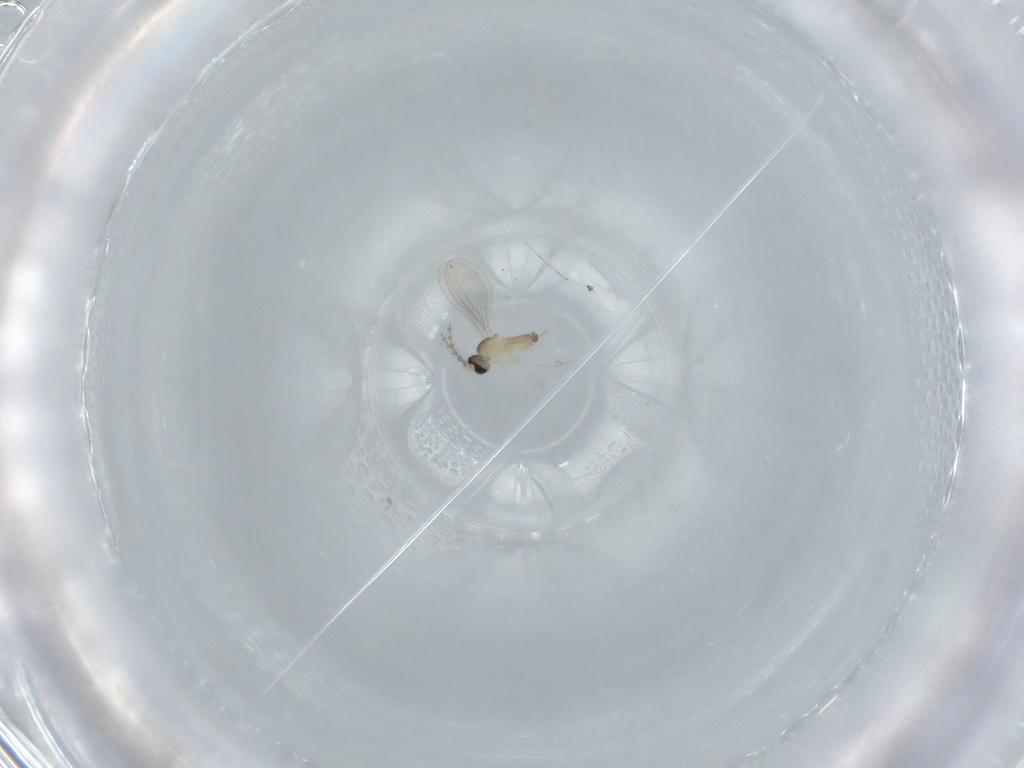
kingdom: Animalia
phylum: Arthropoda
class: Insecta
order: Diptera
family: Cecidomyiidae
